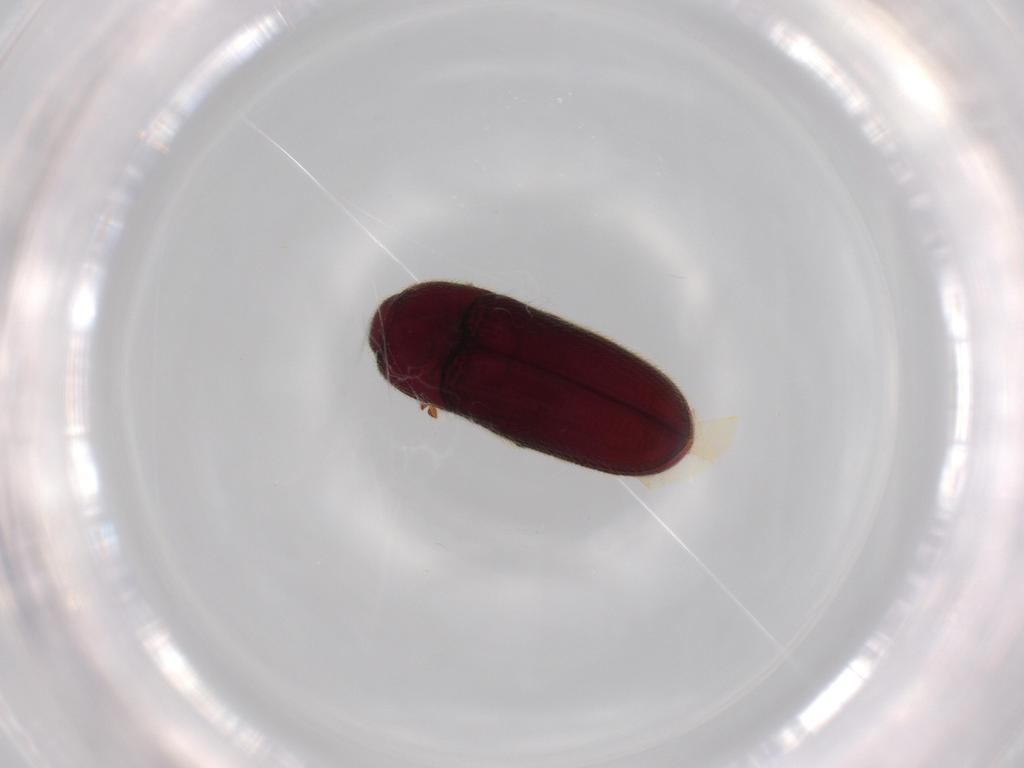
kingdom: Animalia
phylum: Arthropoda
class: Insecta
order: Coleoptera
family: Throscidae
